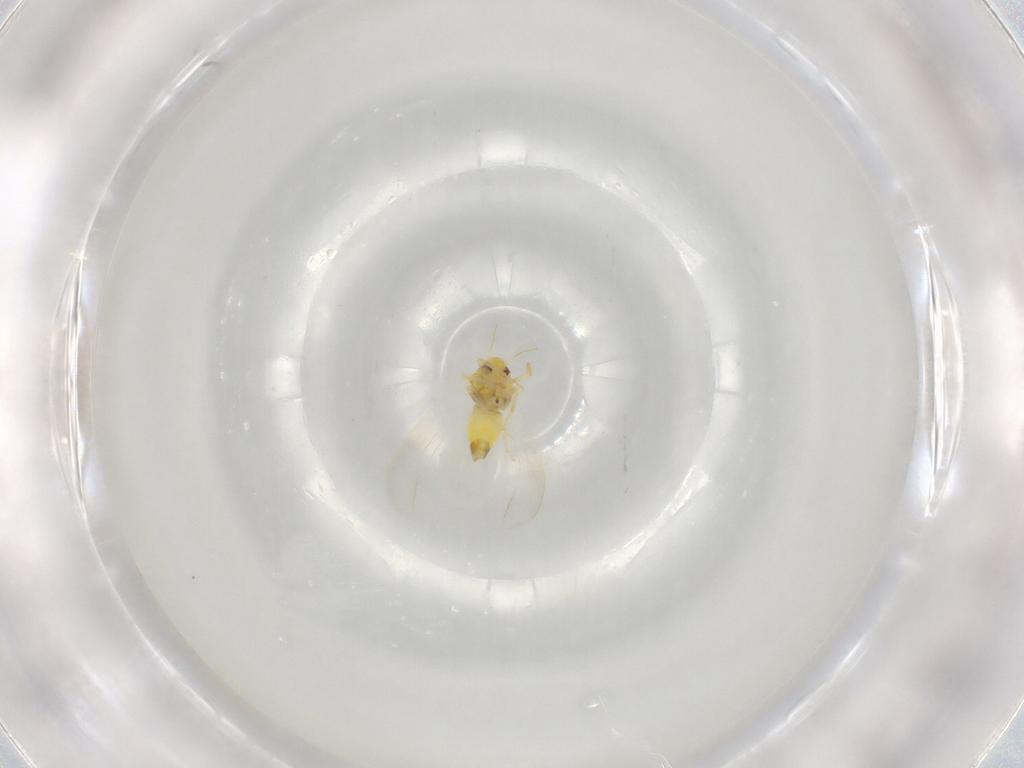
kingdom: Animalia
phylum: Arthropoda
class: Insecta
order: Hemiptera
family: Aleyrodidae
